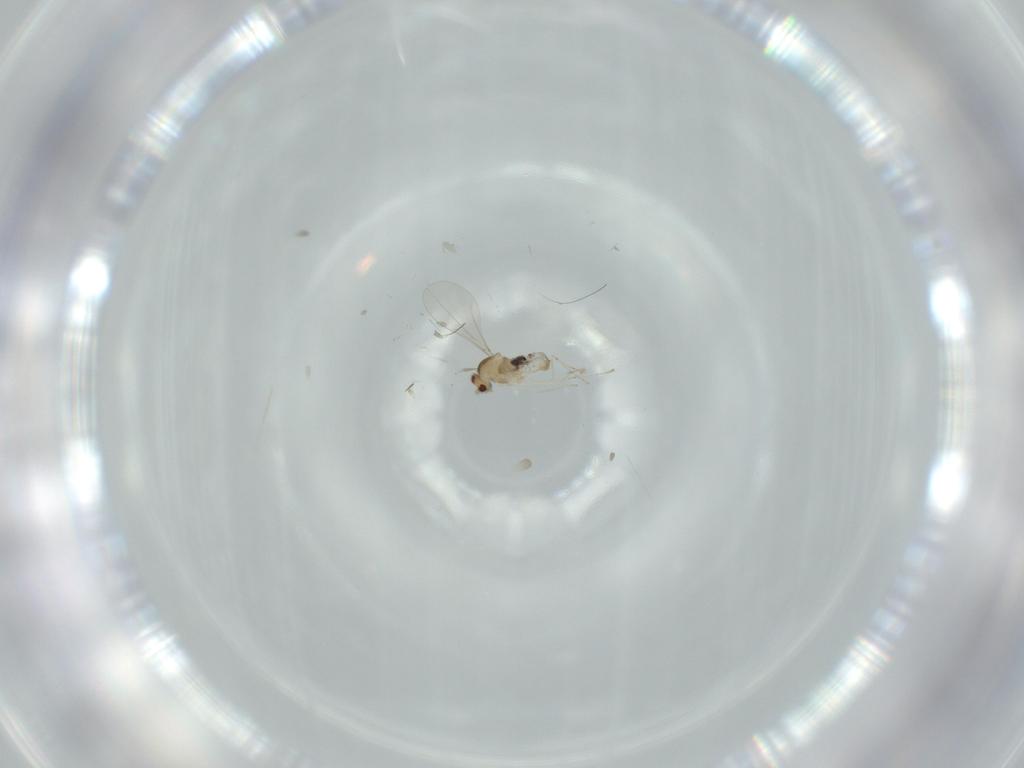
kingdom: Animalia
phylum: Arthropoda
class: Insecta
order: Diptera
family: Cecidomyiidae
